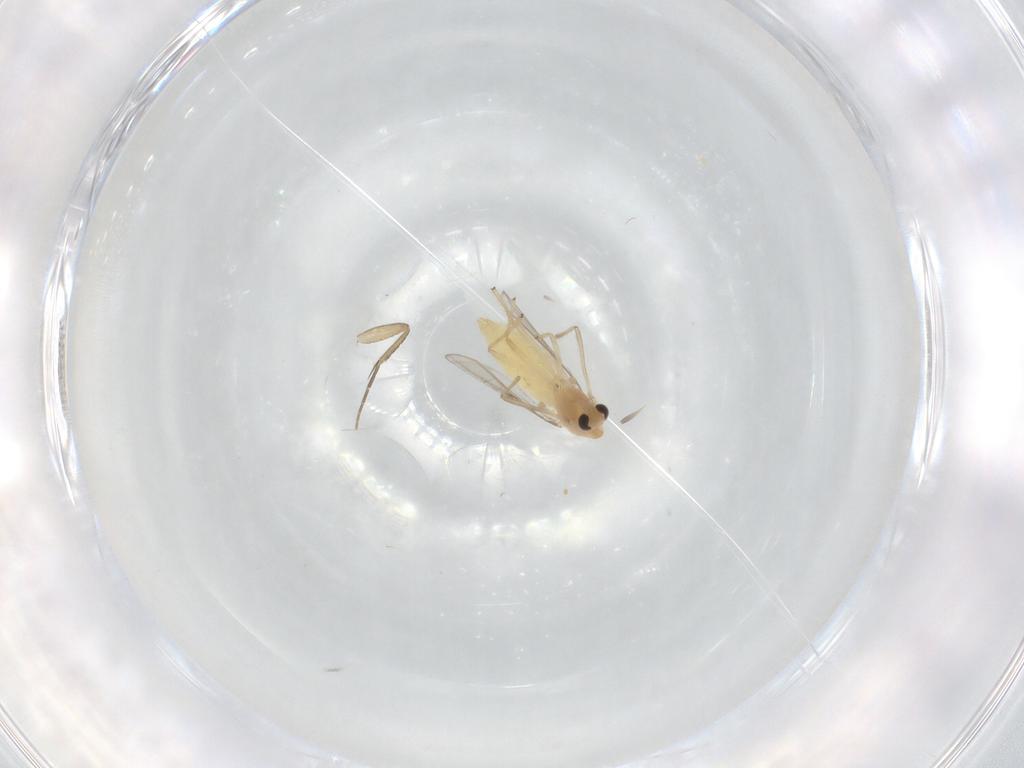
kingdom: Animalia
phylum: Arthropoda
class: Insecta
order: Diptera
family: Chironomidae
